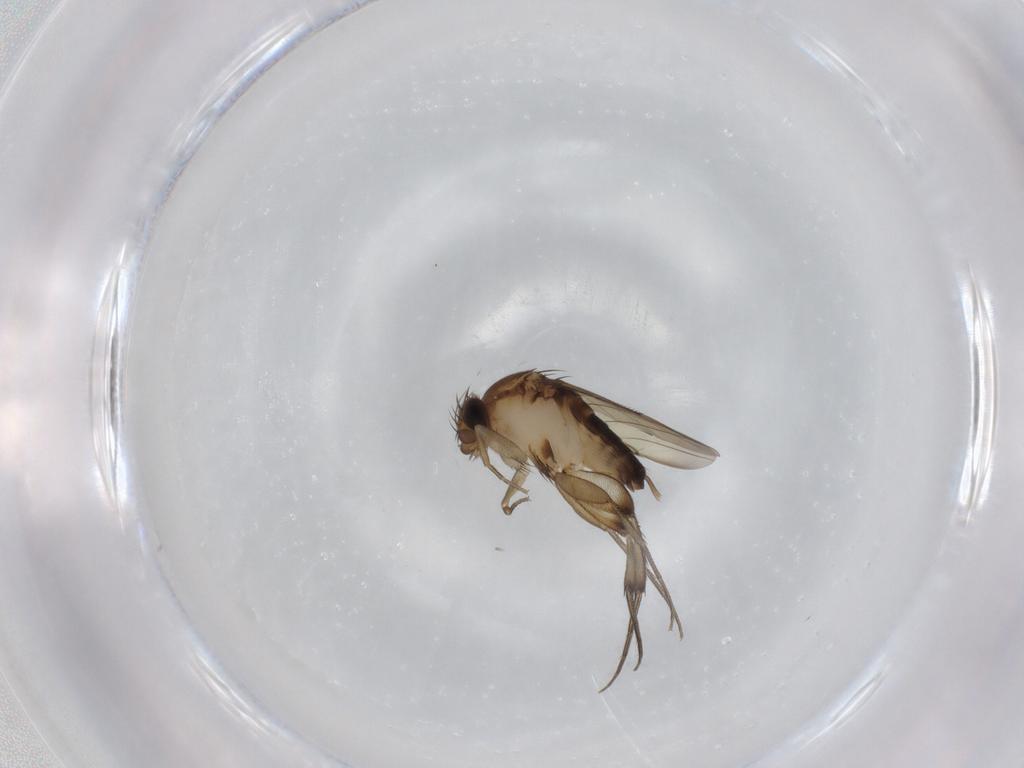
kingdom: Animalia
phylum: Arthropoda
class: Insecta
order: Diptera
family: Phoridae
